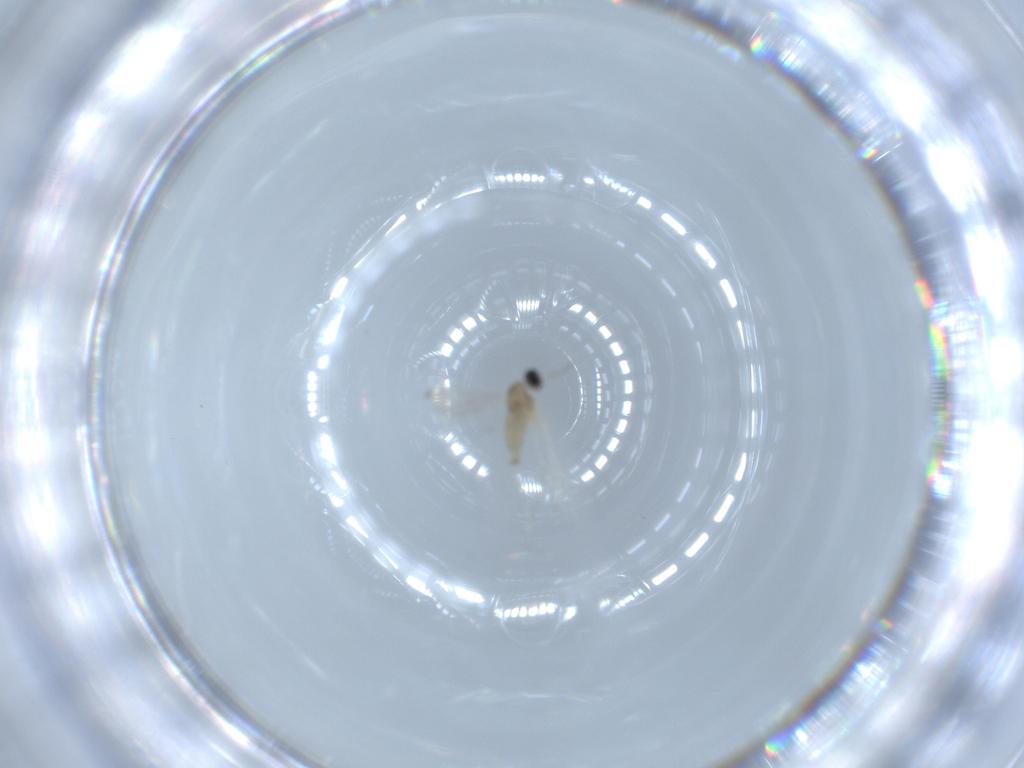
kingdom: Animalia
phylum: Arthropoda
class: Insecta
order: Diptera
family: Cecidomyiidae
